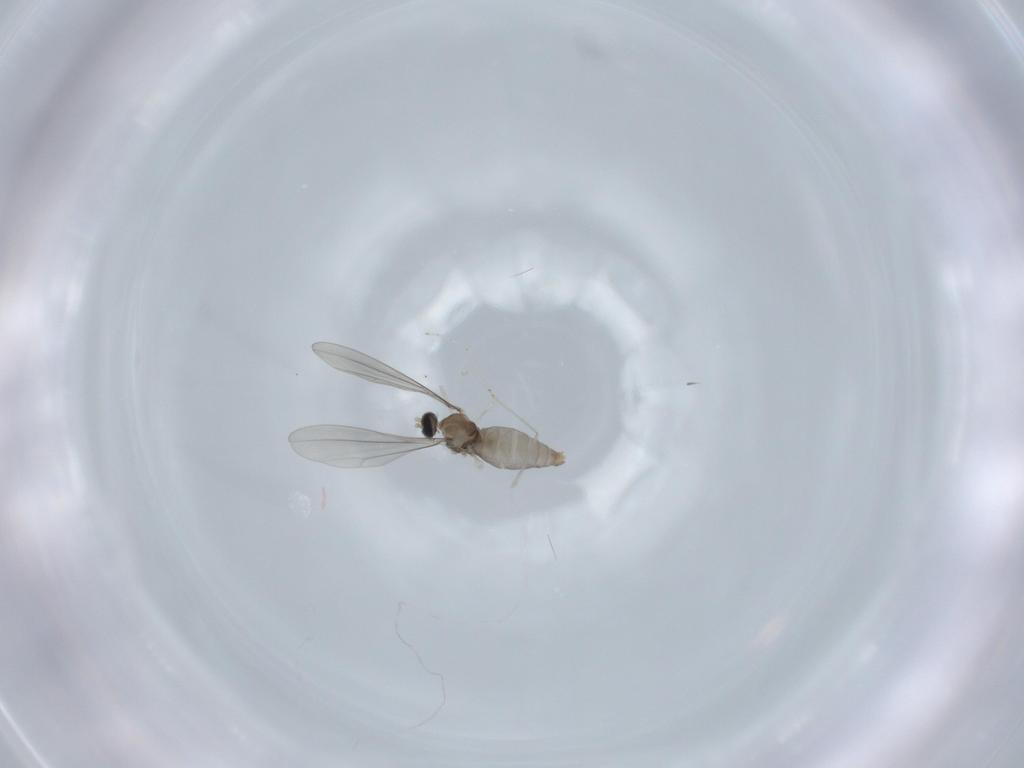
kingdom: Animalia
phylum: Arthropoda
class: Insecta
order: Diptera
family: Cecidomyiidae
